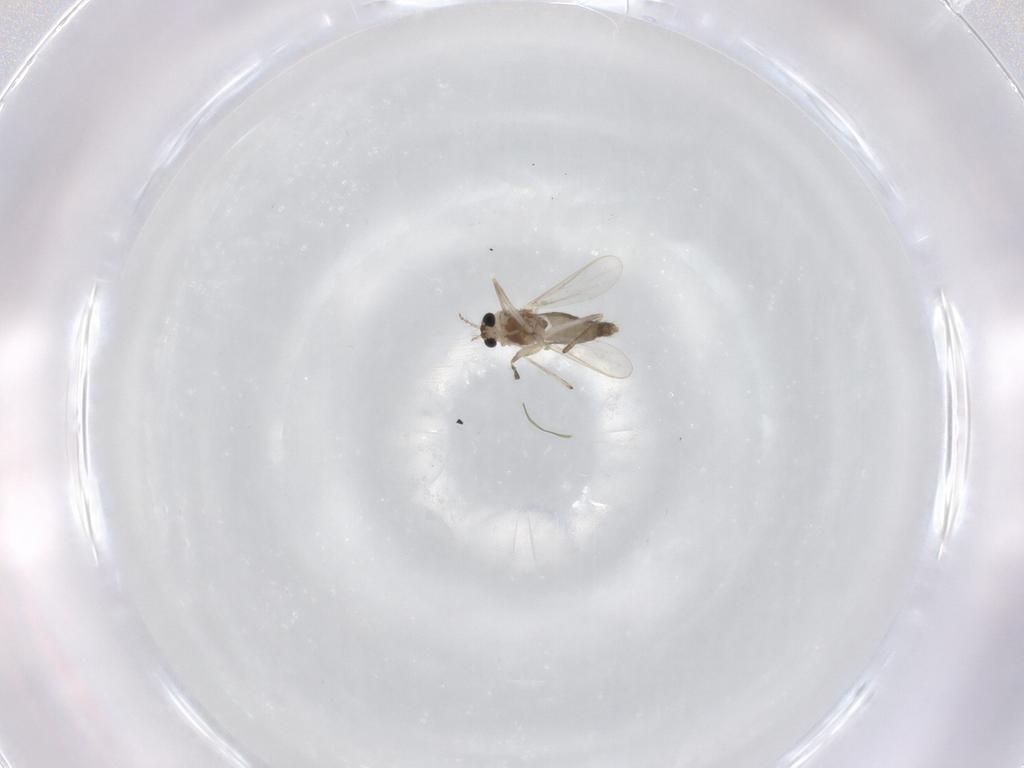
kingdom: Animalia
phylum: Arthropoda
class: Insecta
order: Diptera
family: Chironomidae
